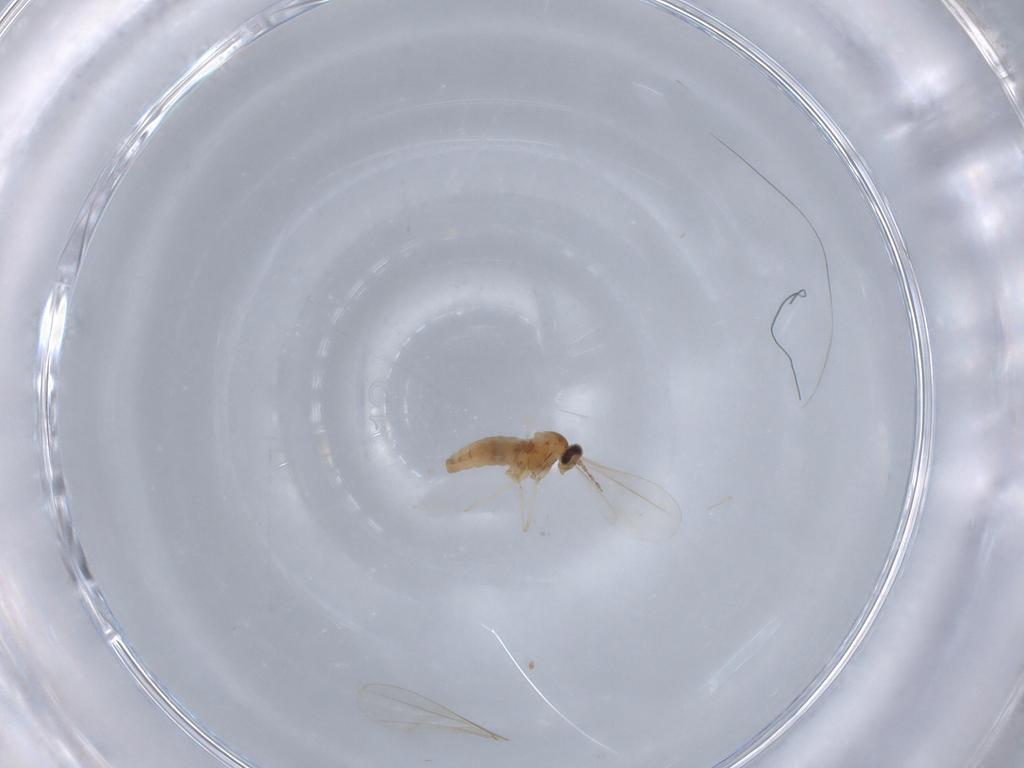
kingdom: Animalia
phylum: Arthropoda
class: Insecta
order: Diptera
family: Cecidomyiidae
